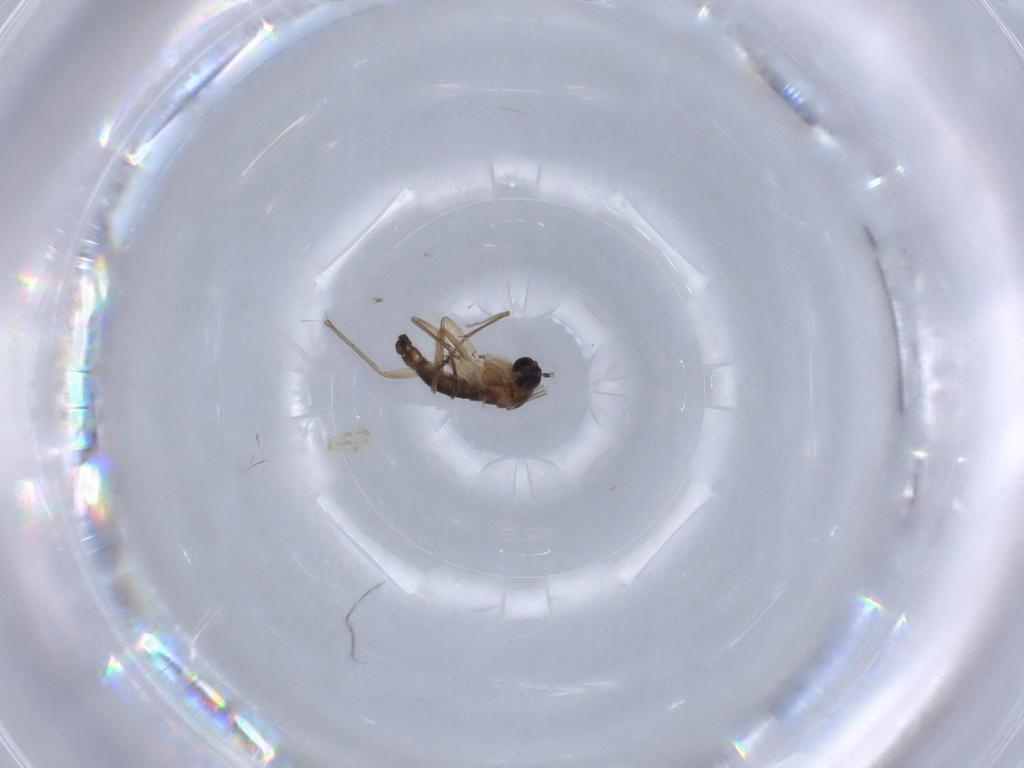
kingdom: Animalia
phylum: Arthropoda
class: Insecta
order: Diptera
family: Sciaridae
